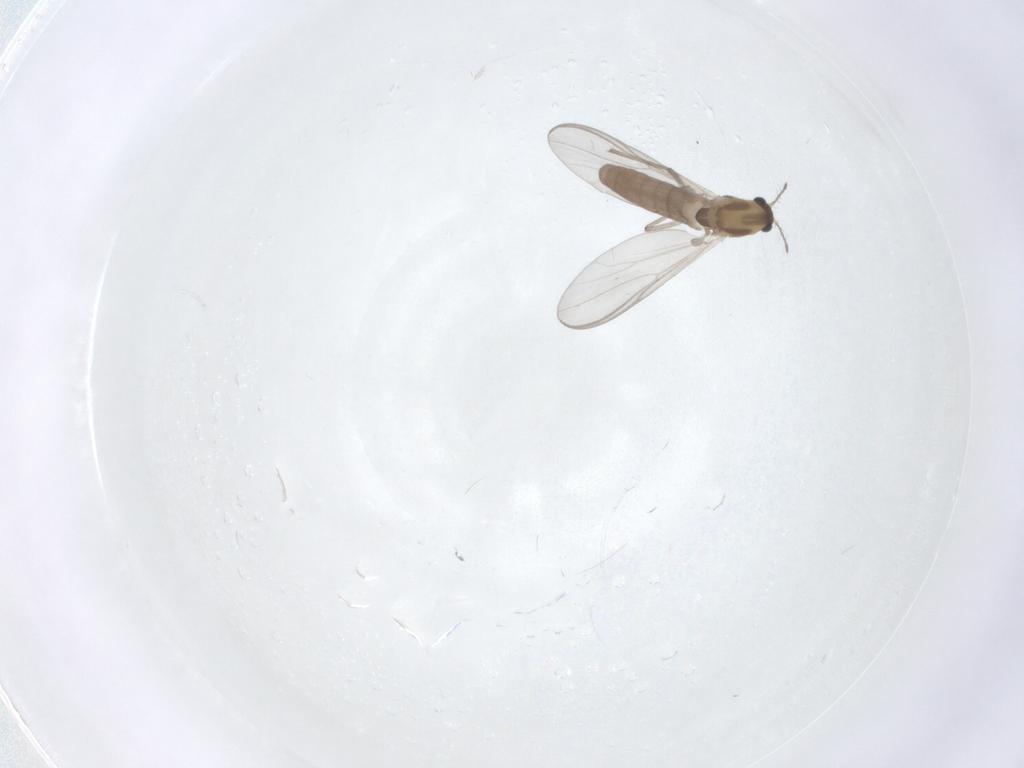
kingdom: Animalia
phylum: Arthropoda
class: Insecta
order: Diptera
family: Chironomidae
